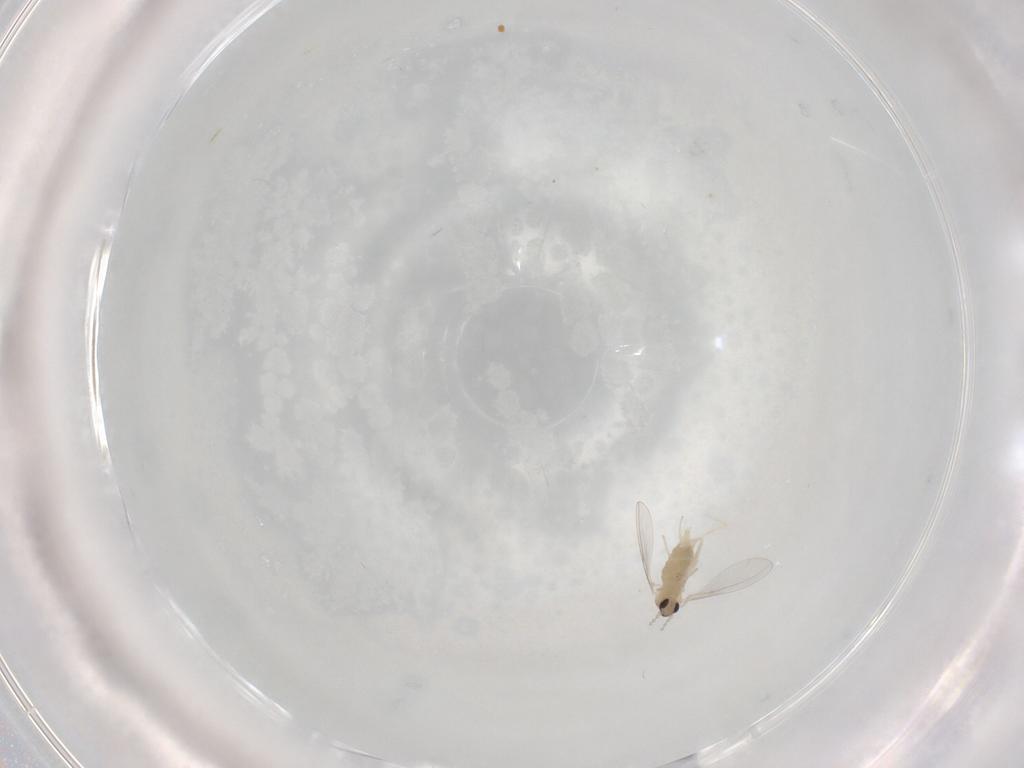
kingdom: Animalia
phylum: Arthropoda
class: Insecta
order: Diptera
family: Cecidomyiidae
